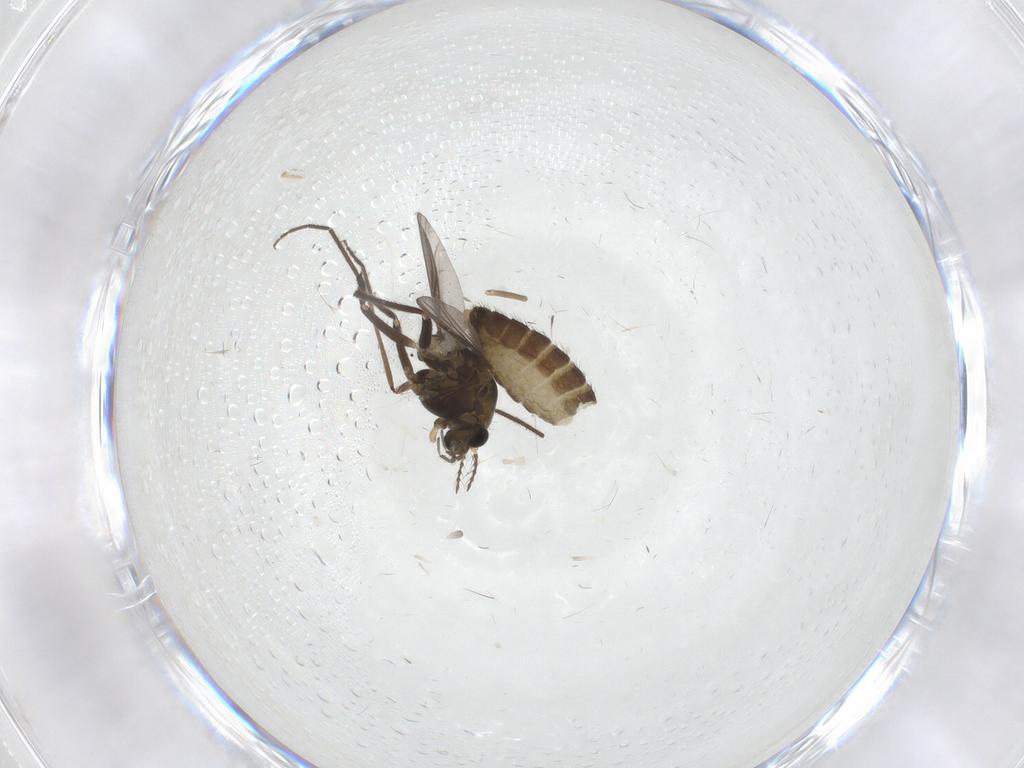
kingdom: Animalia
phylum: Arthropoda
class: Insecta
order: Diptera
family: Chironomidae
